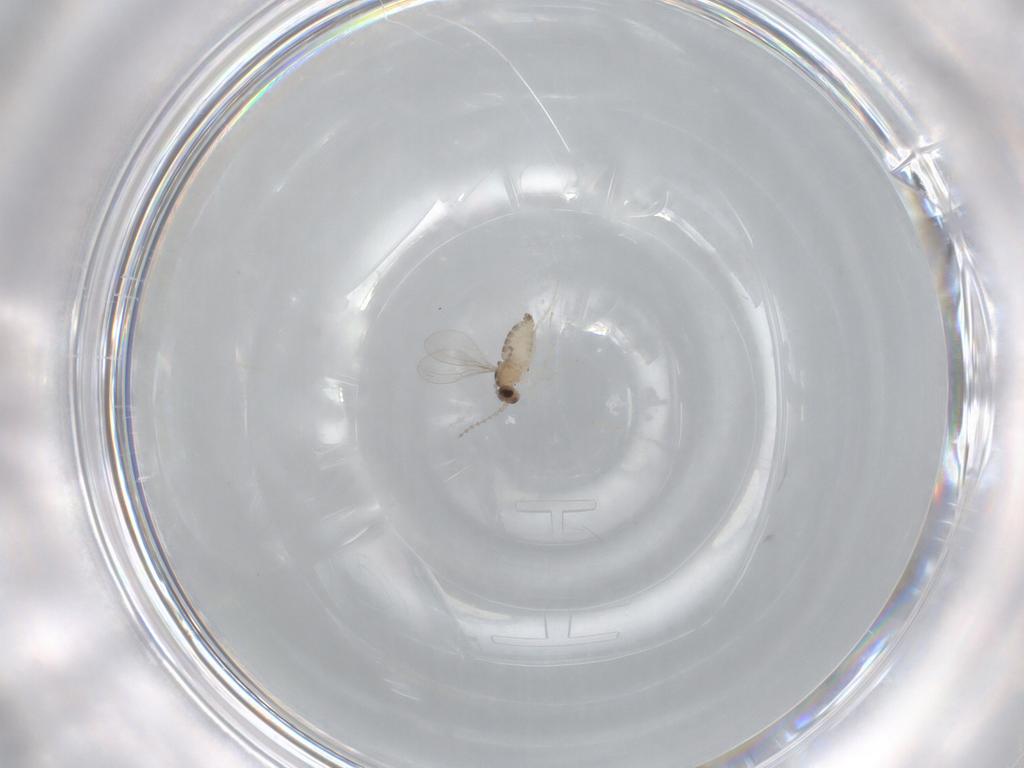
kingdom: Animalia
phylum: Arthropoda
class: Insecta
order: Diptera
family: Cecidomyiidae
